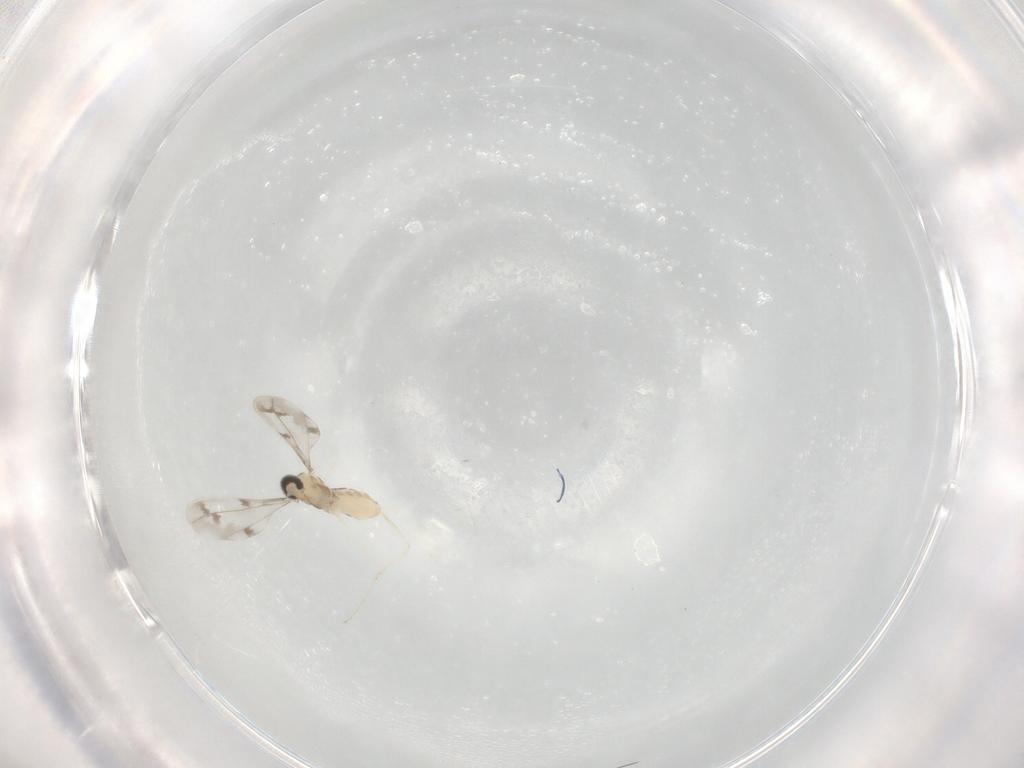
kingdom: Animalia
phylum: Arthropoda
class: Insecta
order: Diptera
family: Cecidomyiidae
